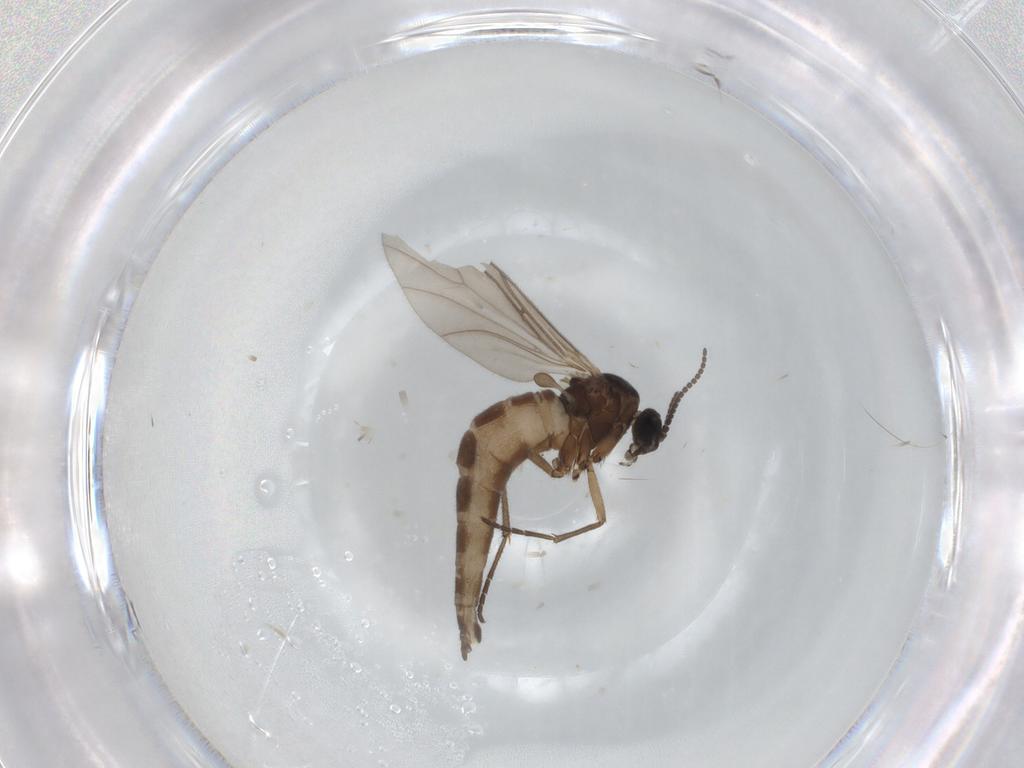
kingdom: Animalia
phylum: Arthropoda
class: Insecta
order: Diptera
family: Sciaridae
